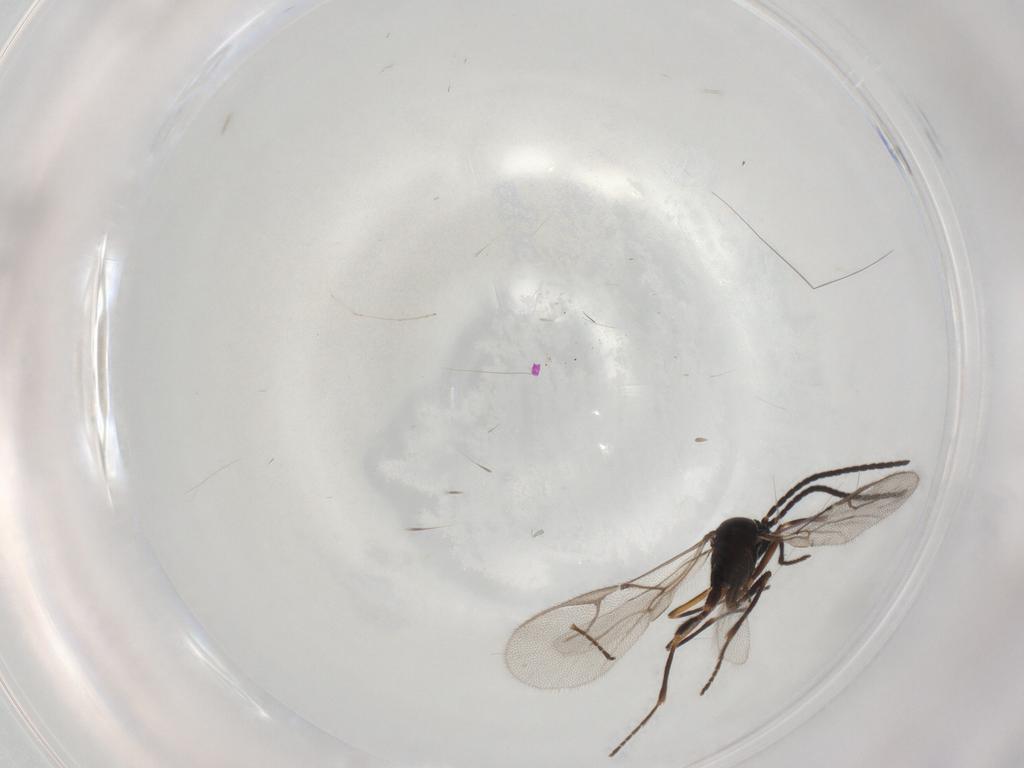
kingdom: Animalia
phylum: Arthropoda
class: Insecta
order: Hymenoptera
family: Braconidae
